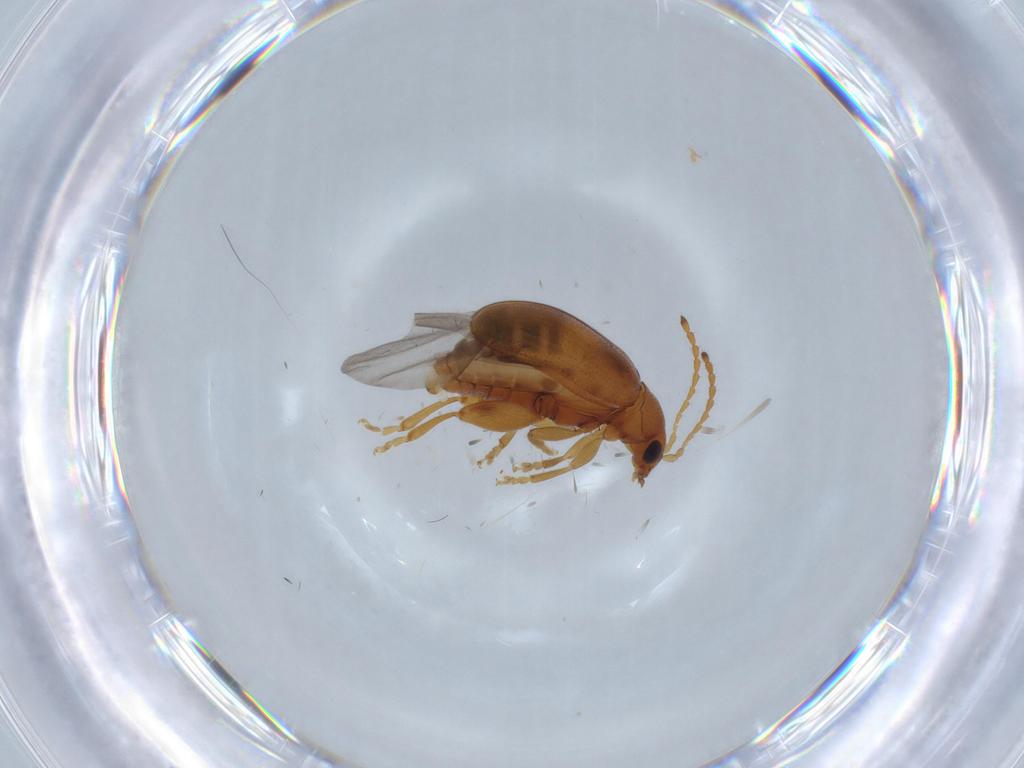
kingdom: Animalia
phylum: Arthropoda
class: Insecta
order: Coleoptera
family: Chrysomelidae
